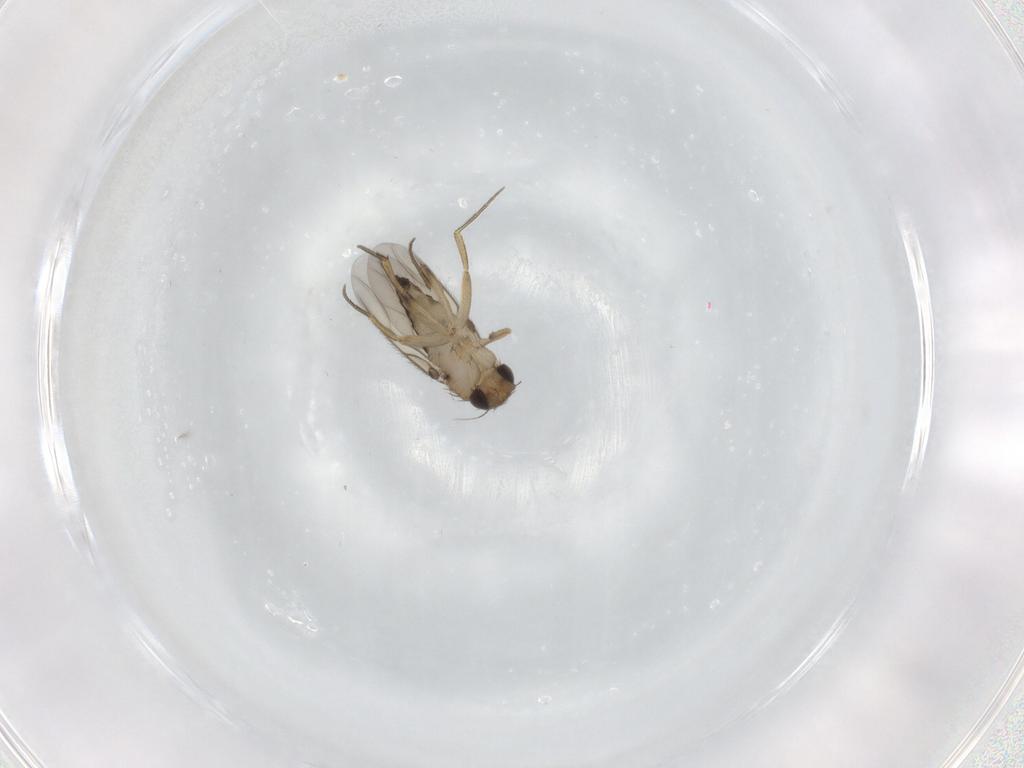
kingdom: Animalia
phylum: Arthropoda
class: Insecta
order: Diptera
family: Phoridae
